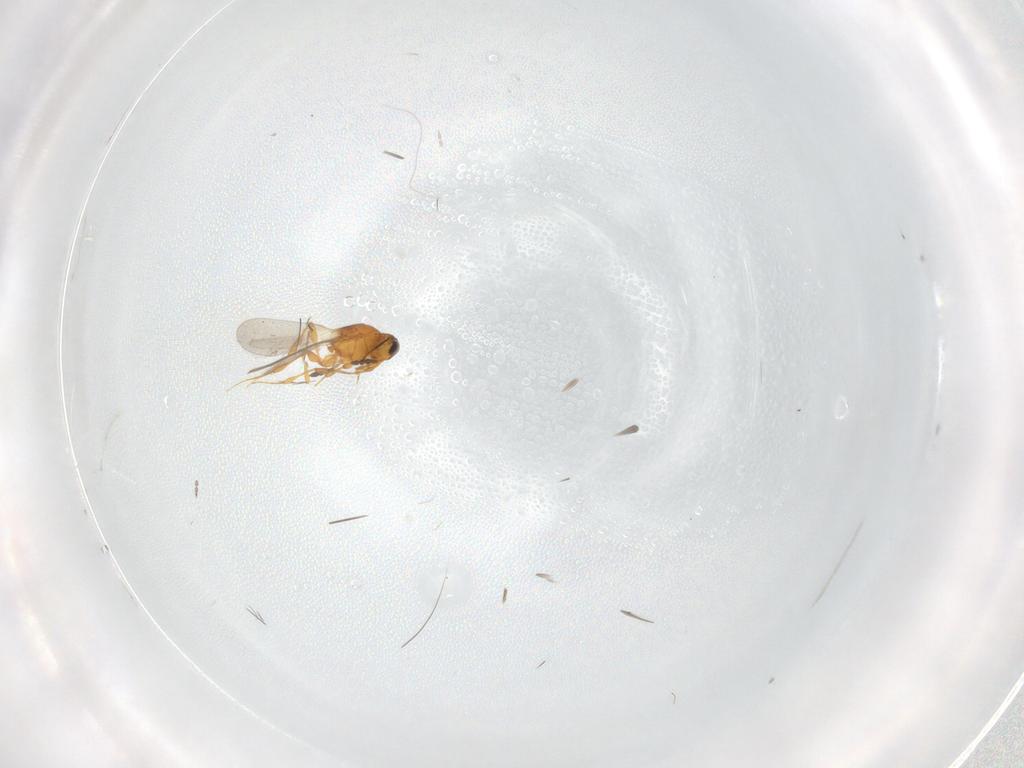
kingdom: Animalia
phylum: Arthropoda
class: Insecta
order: Hymenoptera
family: Platygastridae
